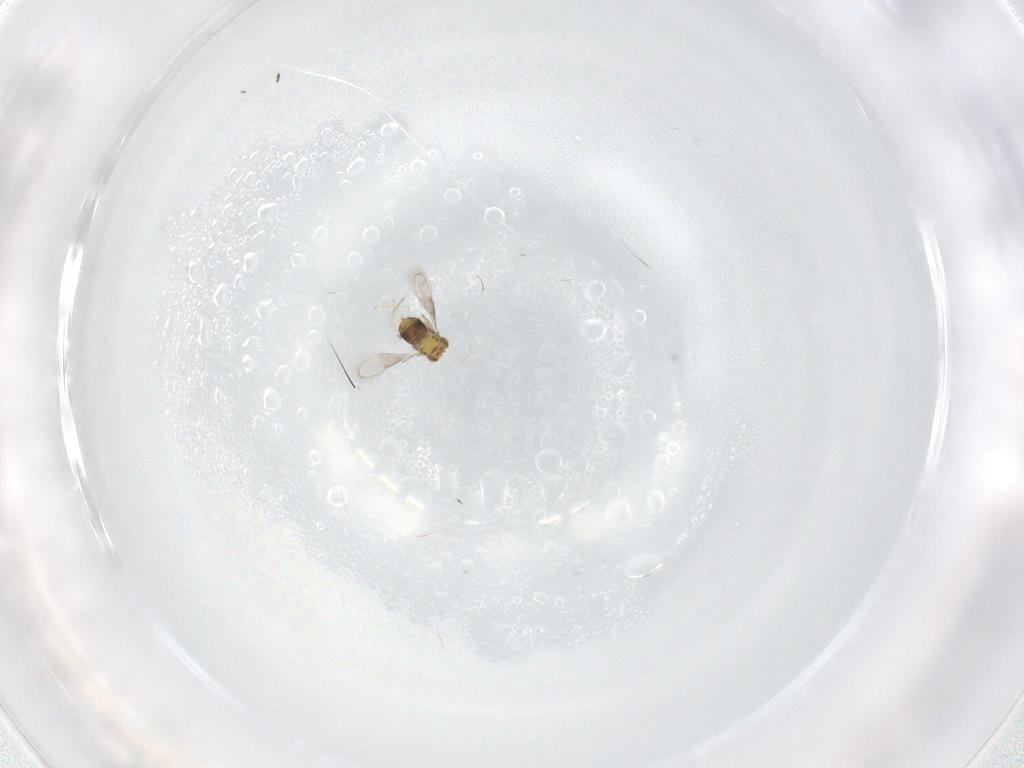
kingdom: Animalia
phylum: Arthropoda
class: Insecta
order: Hymenoptera
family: Aphelinidae
